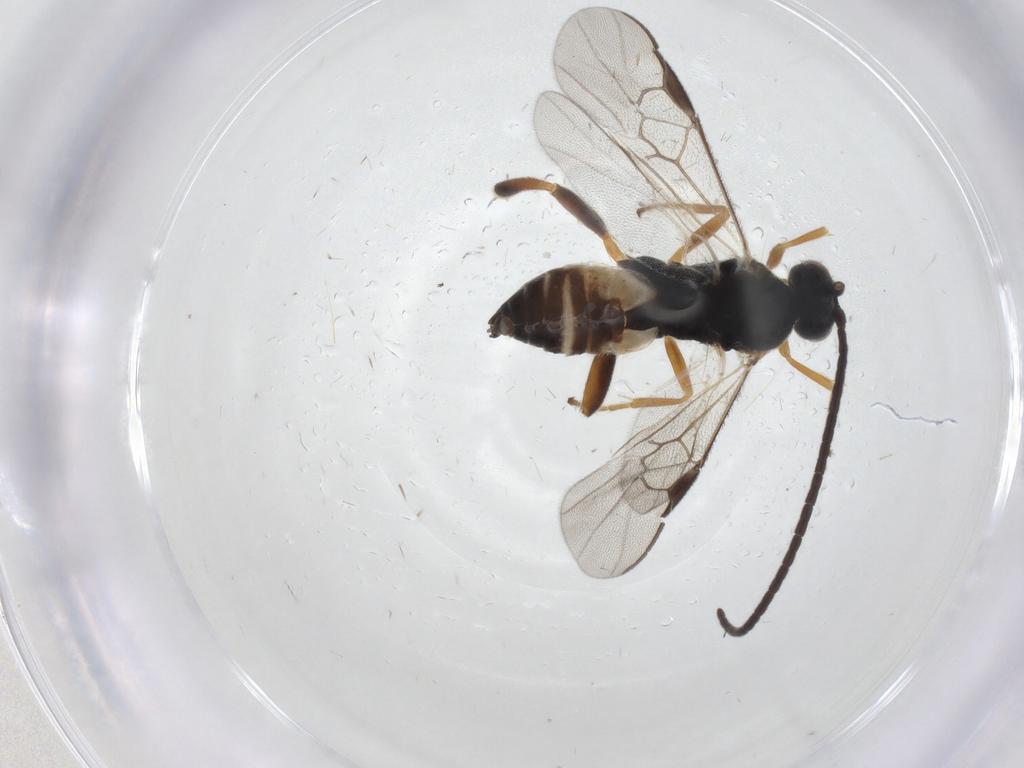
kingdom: Animalia
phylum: Arthropoda
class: Insecta
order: Hymenoptera
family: Braconidae
